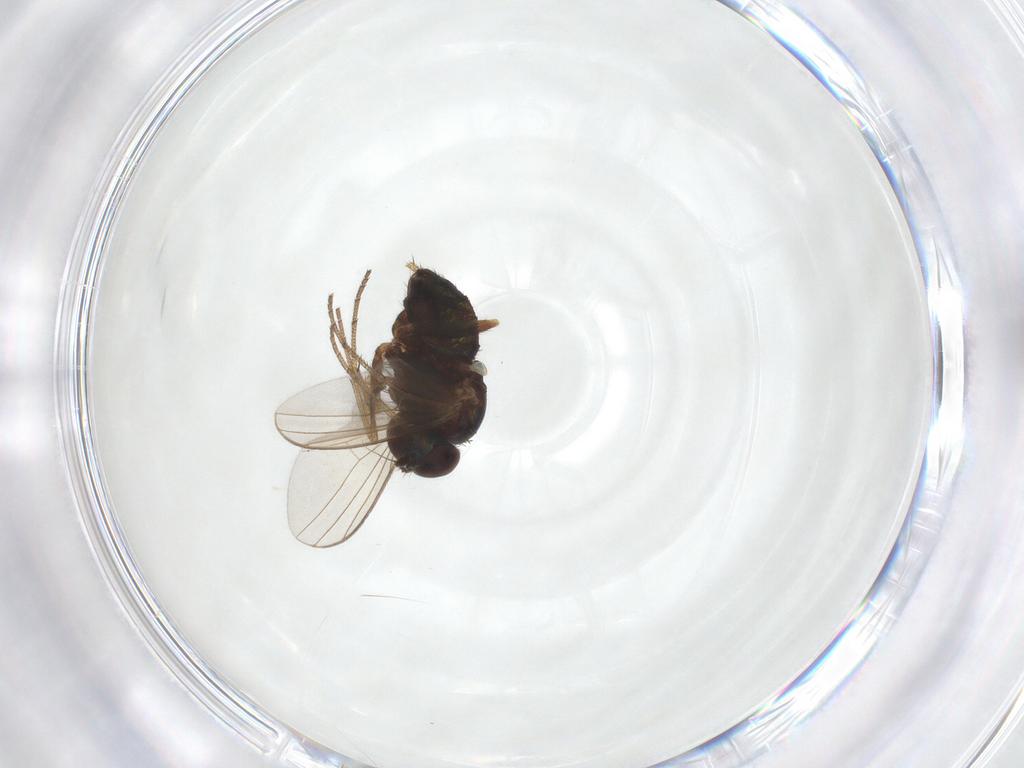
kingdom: Animalia
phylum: Arthropoda
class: Insecta
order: Diptera
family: Dolichopodidae
